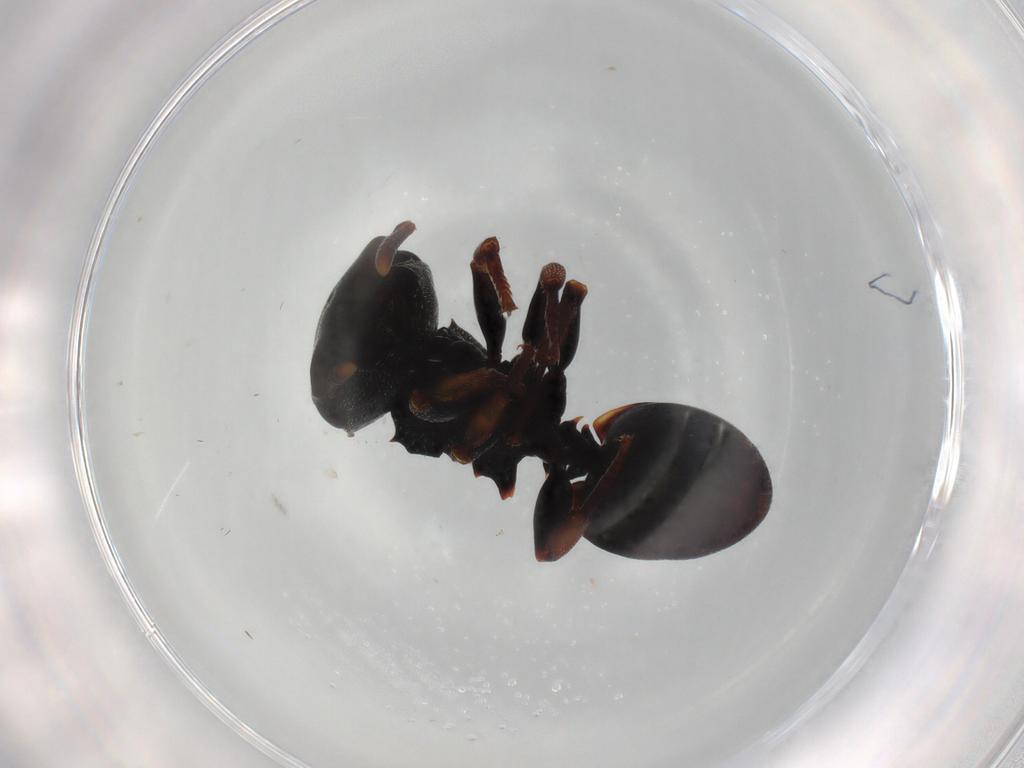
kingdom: Animalia
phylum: Arthropoda
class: Insecta
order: Hymenoptera
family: Formicidae
